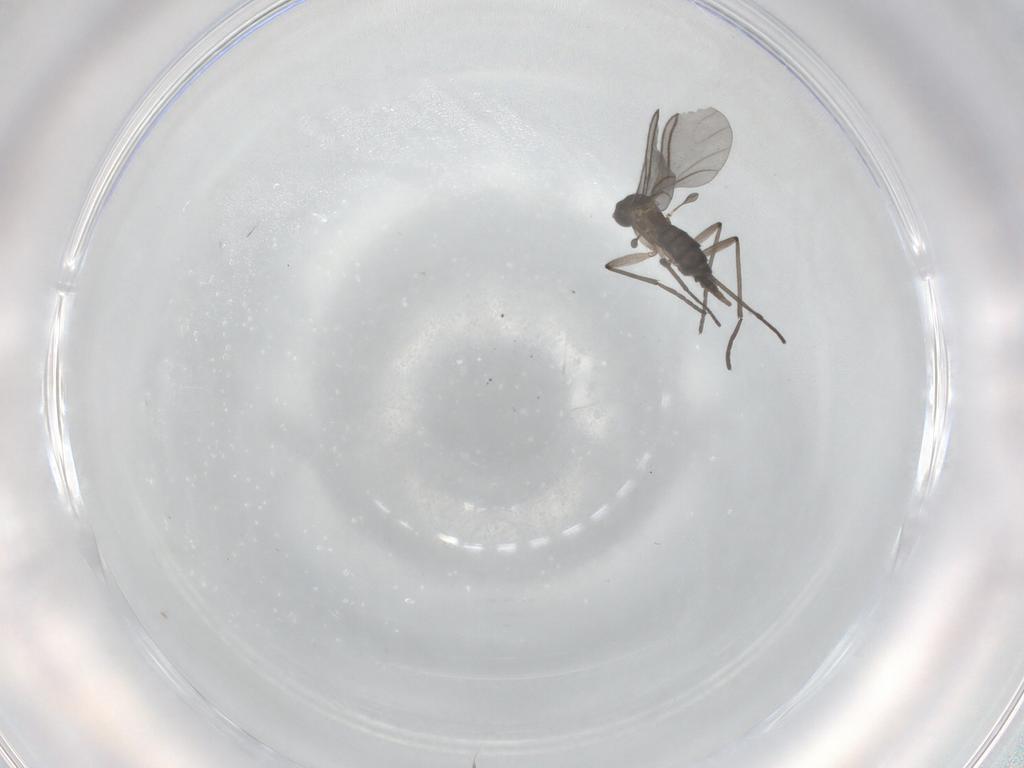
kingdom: Animalia
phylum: Arthropoda
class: Insecta
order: Diptera
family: Sciaridae
